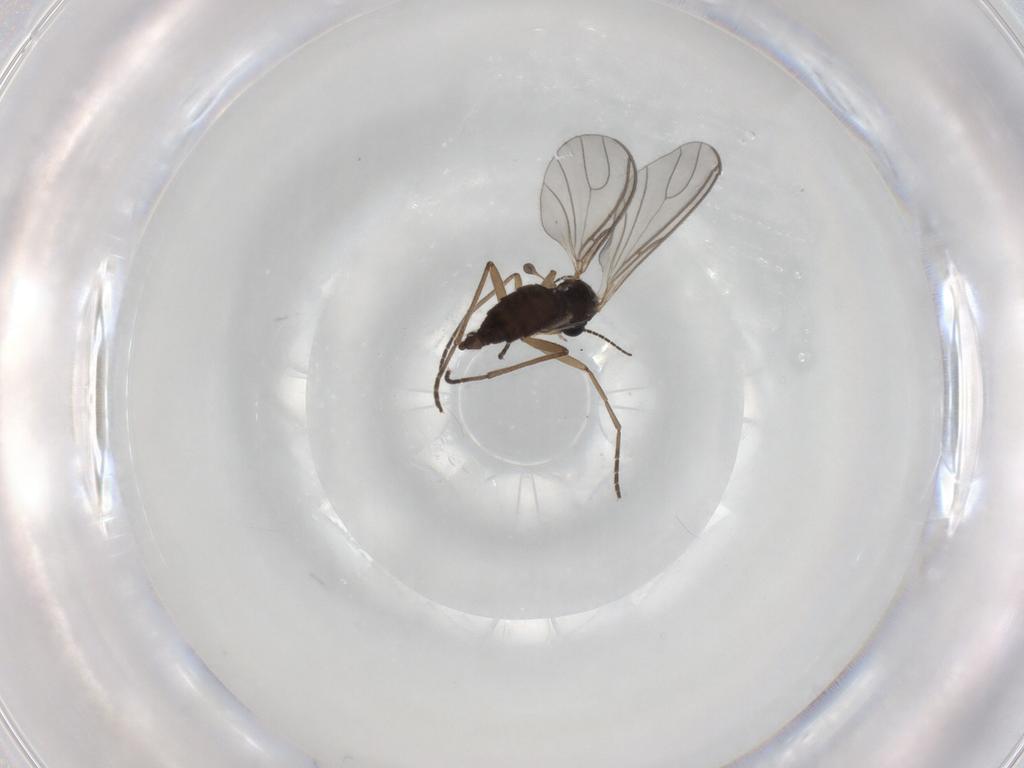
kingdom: Animalia
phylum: Arthropoda
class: Insecta
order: Diptera
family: Sciaridae
